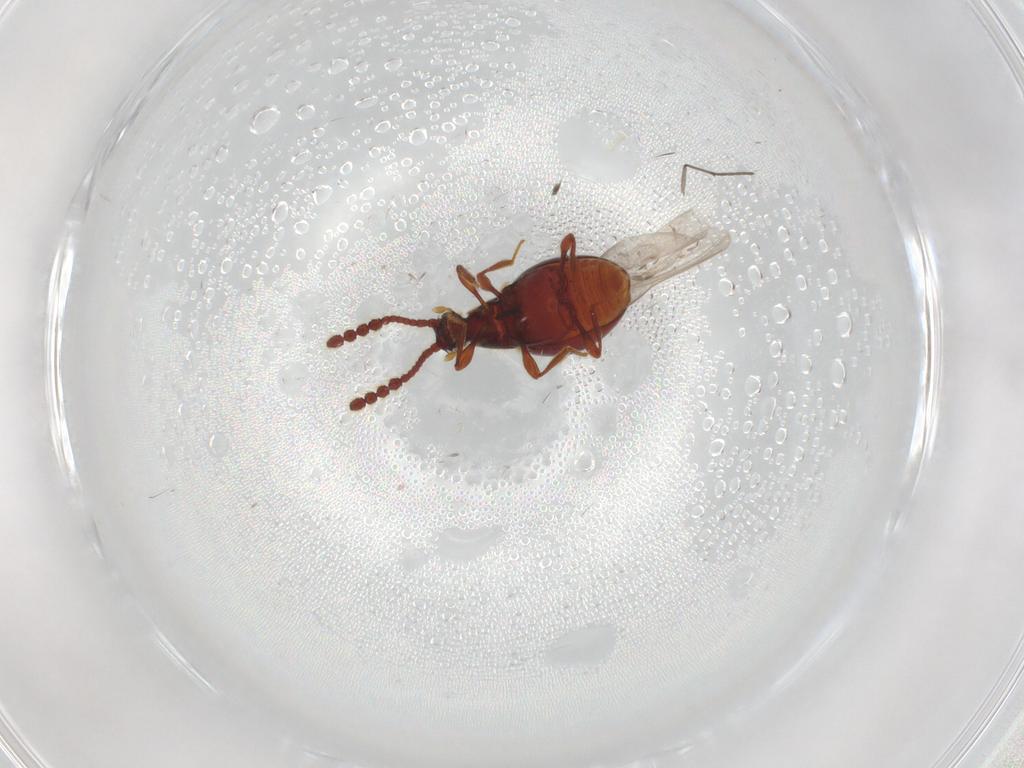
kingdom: Animalia
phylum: Arthropoda
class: Insecta
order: Coleoptera
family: Staphylinidae
